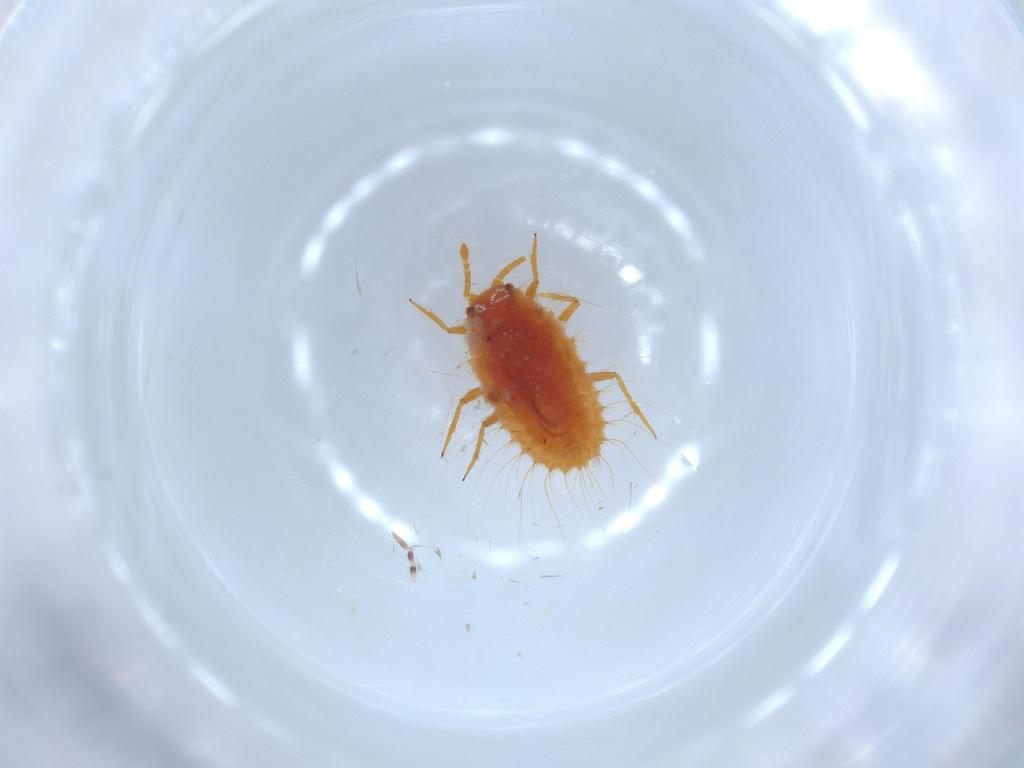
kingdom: Animalia
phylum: Arthropoda
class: Insecta
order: Hemiptera
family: Coccoidea_incertae_sedis
